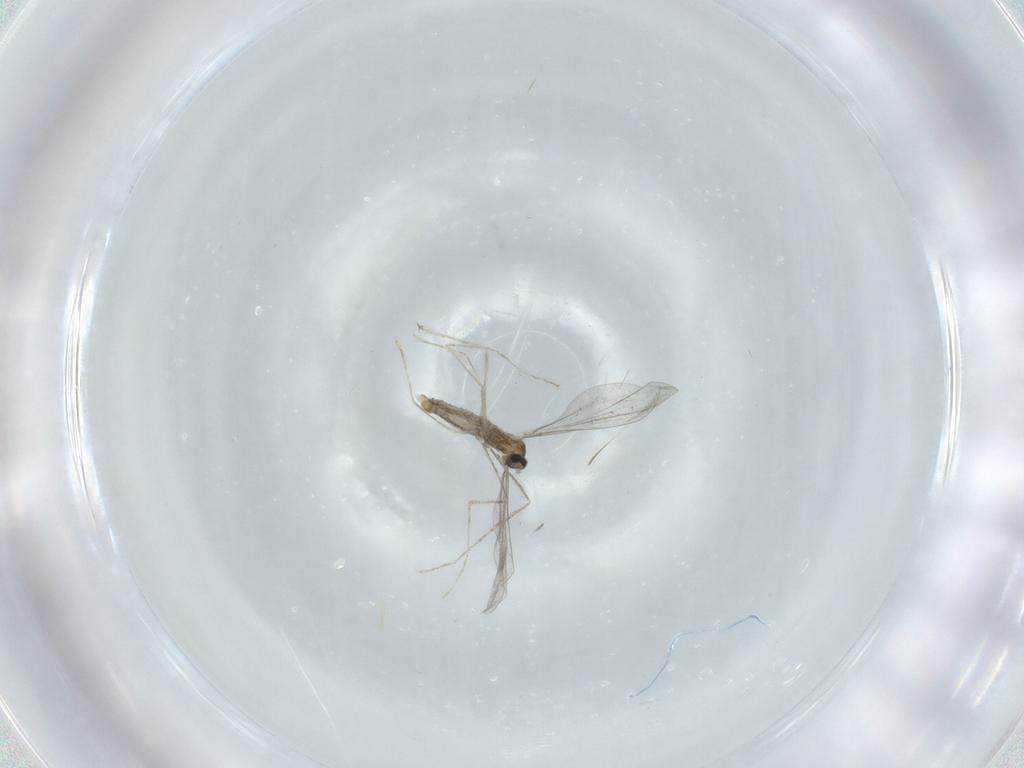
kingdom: Animalia
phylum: Arthropoda
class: Insecta
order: Diptera
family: Cecidomyiidae
